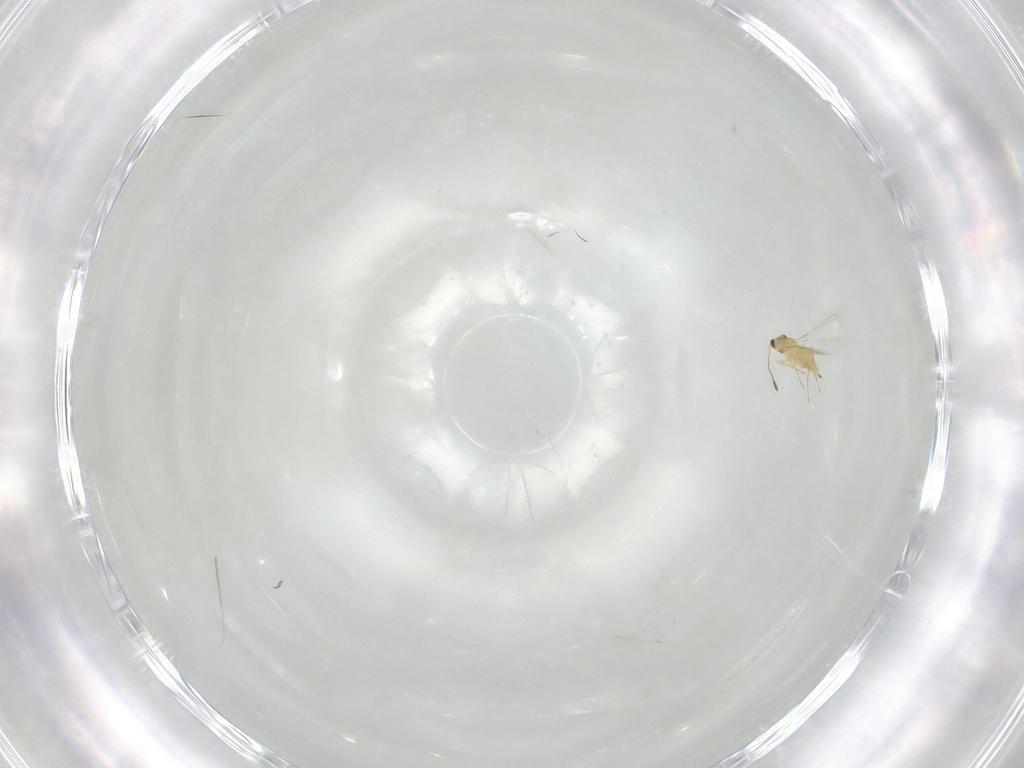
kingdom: Animalia
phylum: Arthropoda
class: Insecta
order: Hymenoptera
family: Mymaridae
